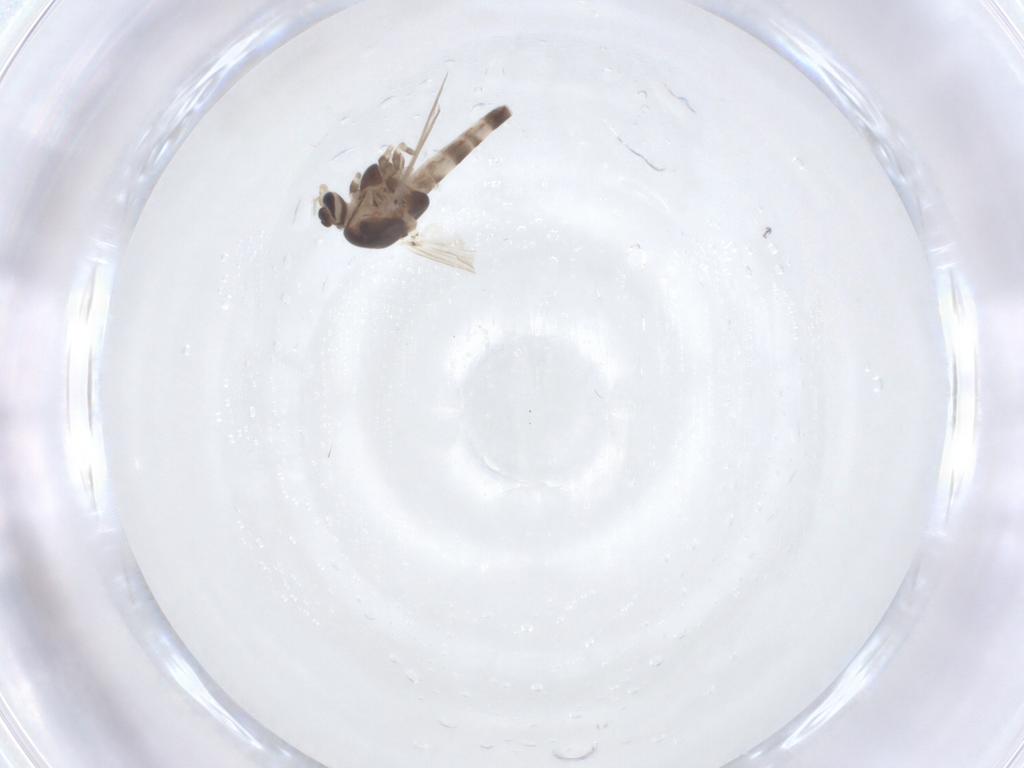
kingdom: Animalia
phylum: Arthropoda
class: Insecta
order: Diptera
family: Chironomidae
